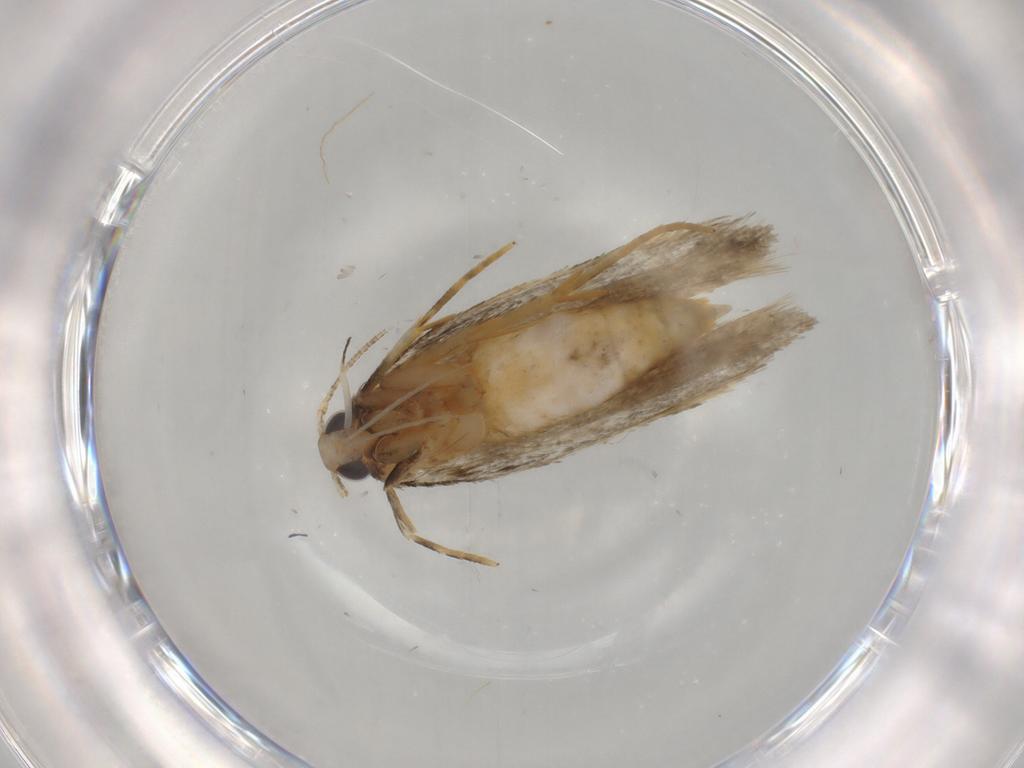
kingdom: Animalia
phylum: Arthropoda
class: Insecta
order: Lepidoptera
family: Autostichidae
